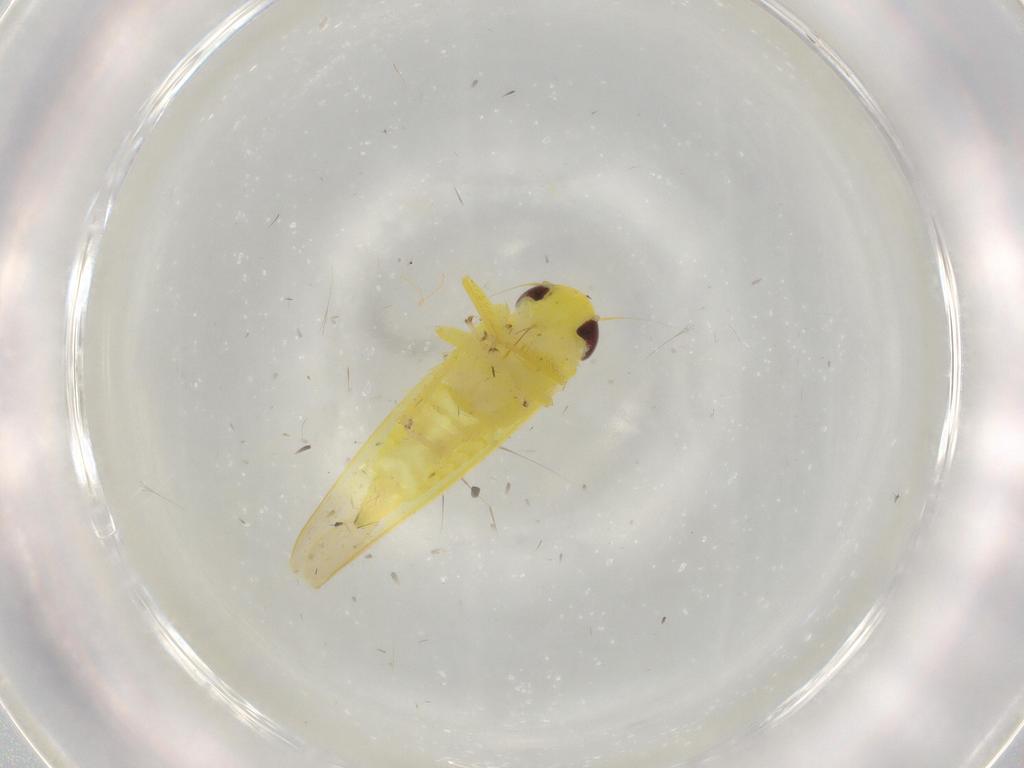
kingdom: Animalia
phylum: Arthropoda
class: Insecta
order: Hemiptera
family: Cicadellidae
